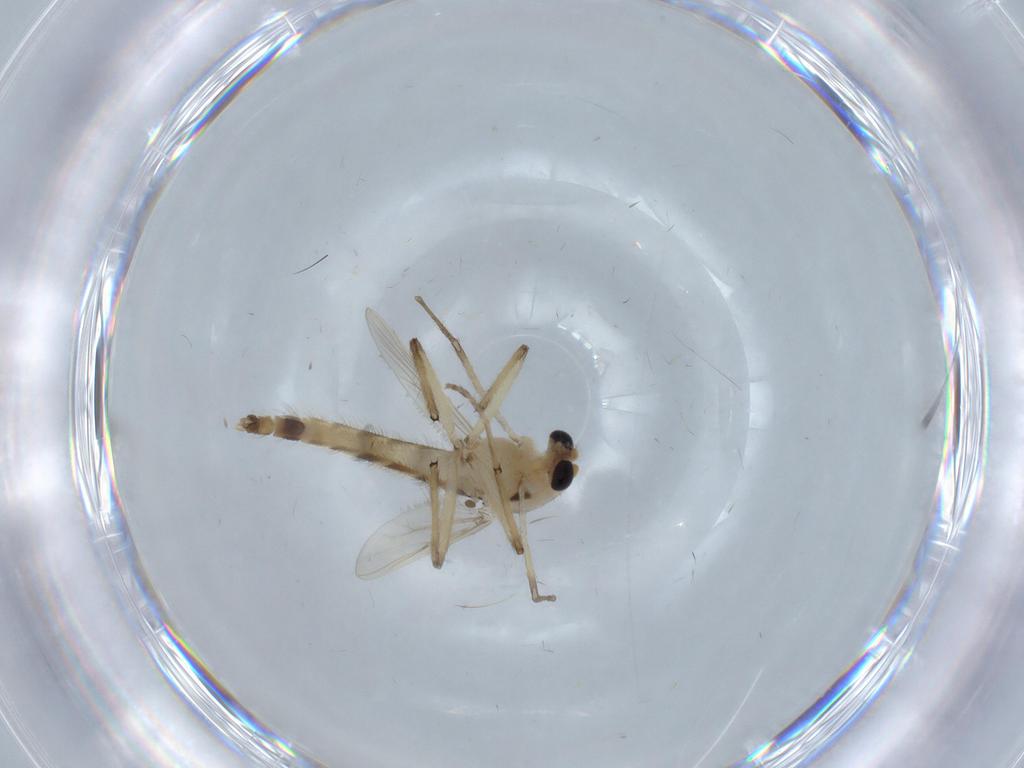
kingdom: Animalia
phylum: Arthropoda
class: Insecta
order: Diptera
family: Chironomidae
